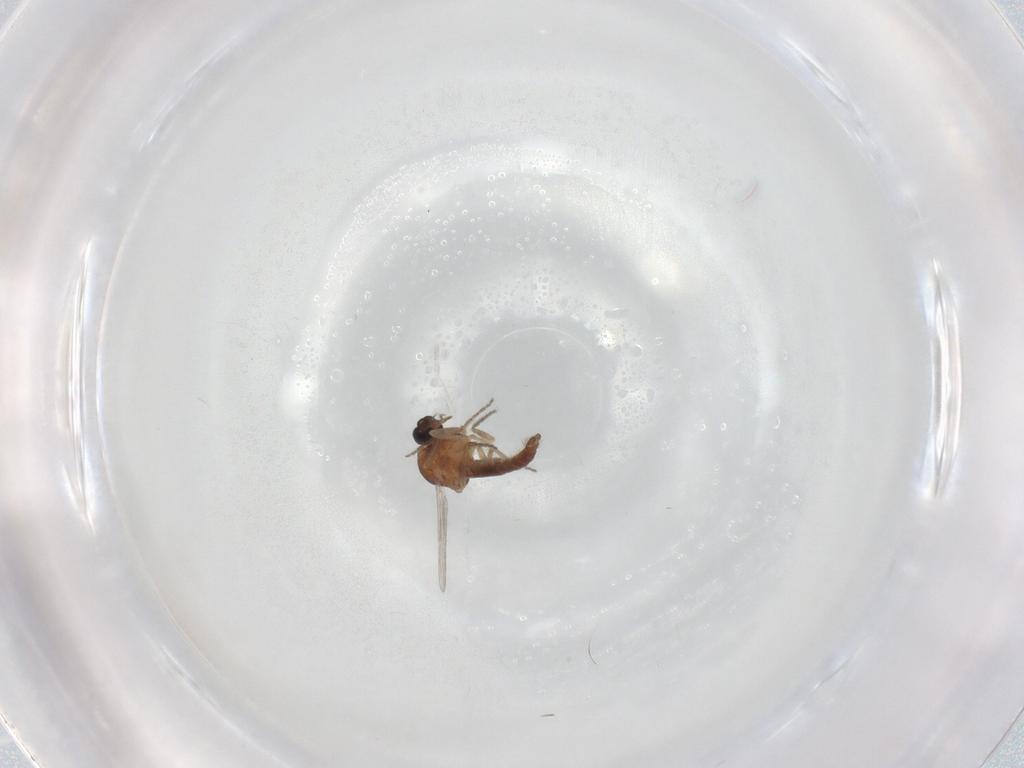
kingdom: Animalia
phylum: Arthropoda
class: Insecta
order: Diptera
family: Ceratopogonidae
